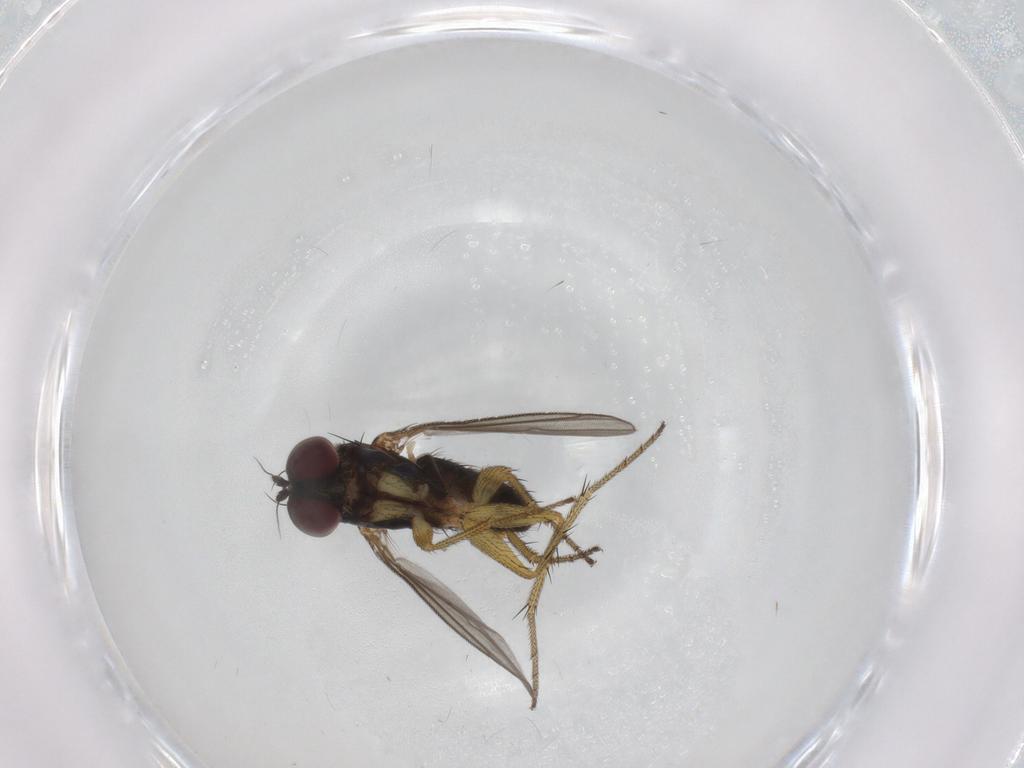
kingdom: Animalia
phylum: Arthropoda
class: Insecta
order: Diptera
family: Dolichopodidae
